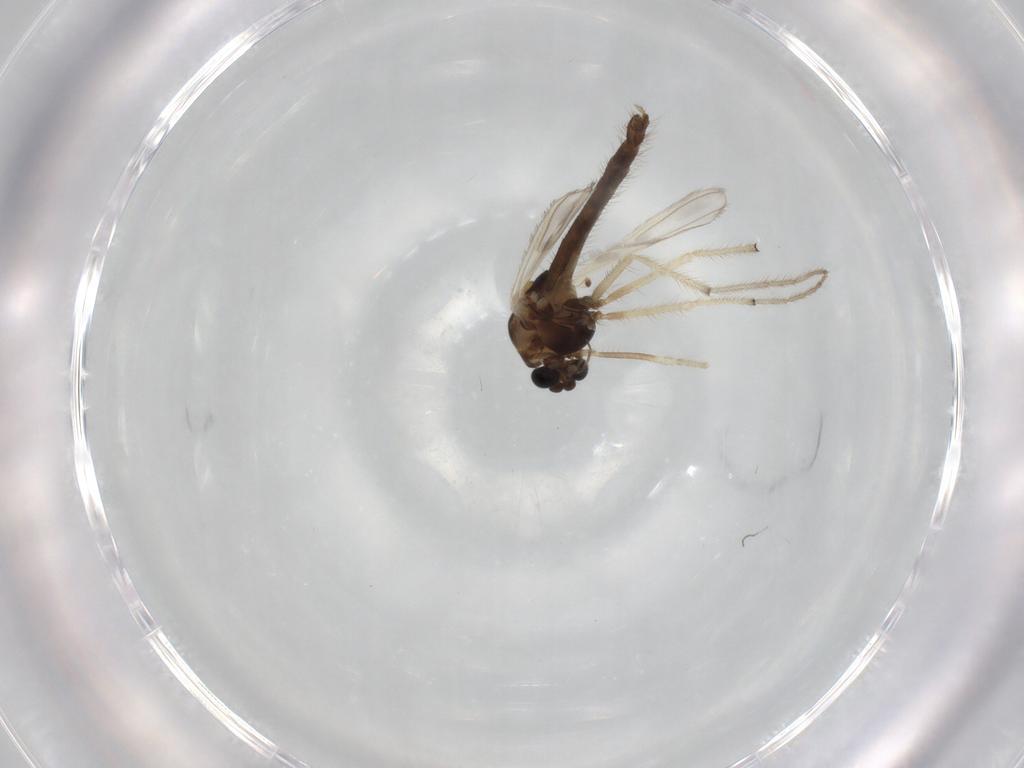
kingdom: Animalia
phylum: Arthropoda
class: Insecta
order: Diptera
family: Chironomidae
